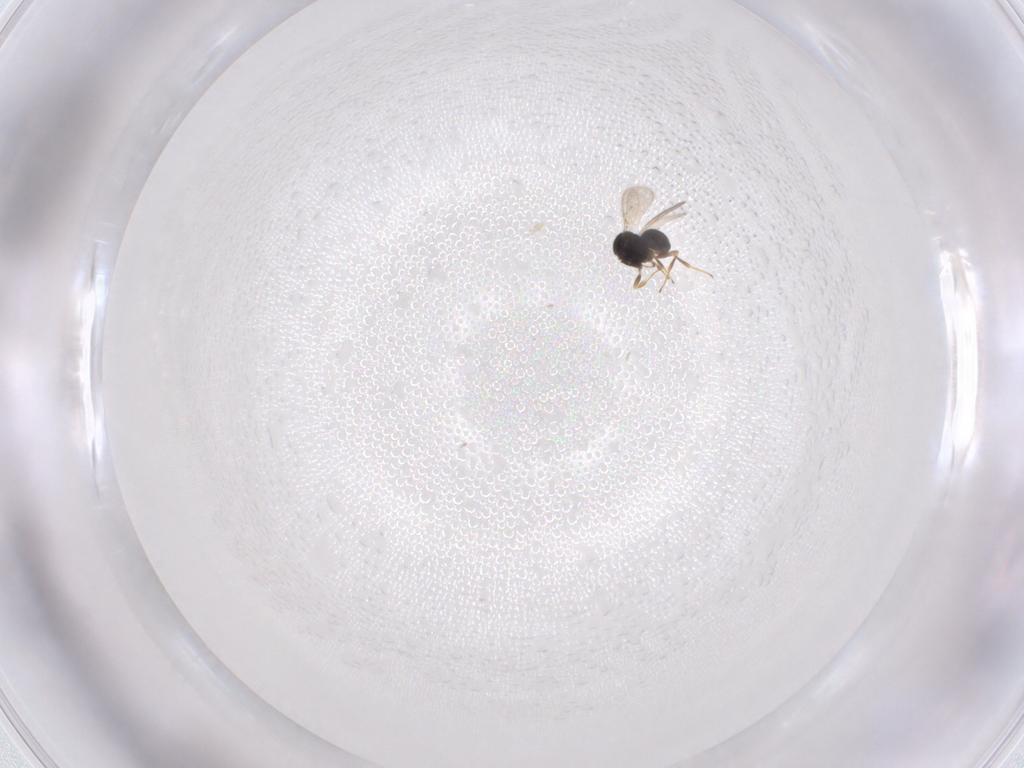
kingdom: Animalia
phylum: Arthropoda
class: Insecta
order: Hymenoptera
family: Scelionidae
